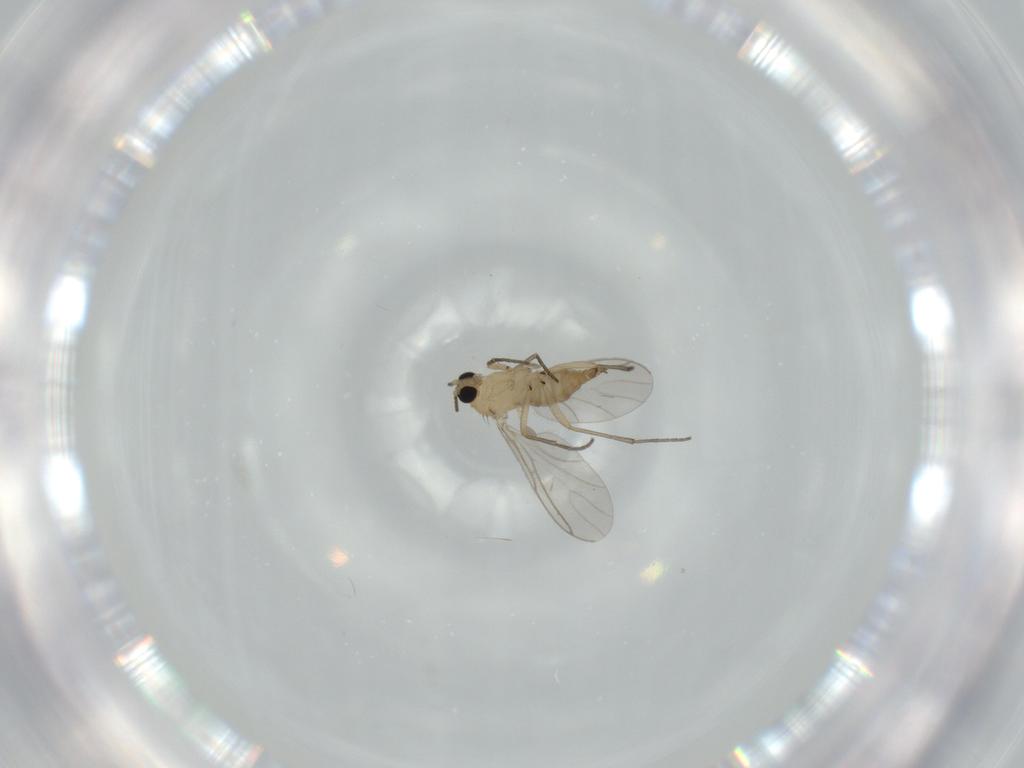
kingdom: Animalia
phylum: Arthropoda
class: Insecta
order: Diptera
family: Sciaridae
